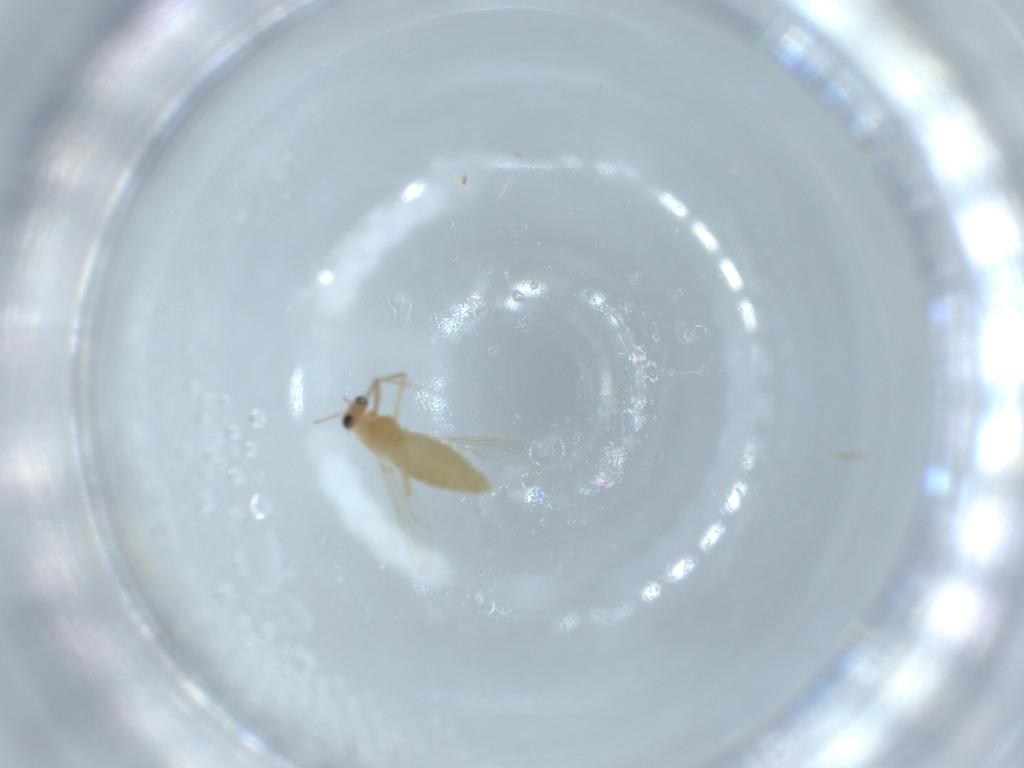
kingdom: Animalia
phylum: Arthropoda
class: Insecta
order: Diptera
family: Chironomidae
